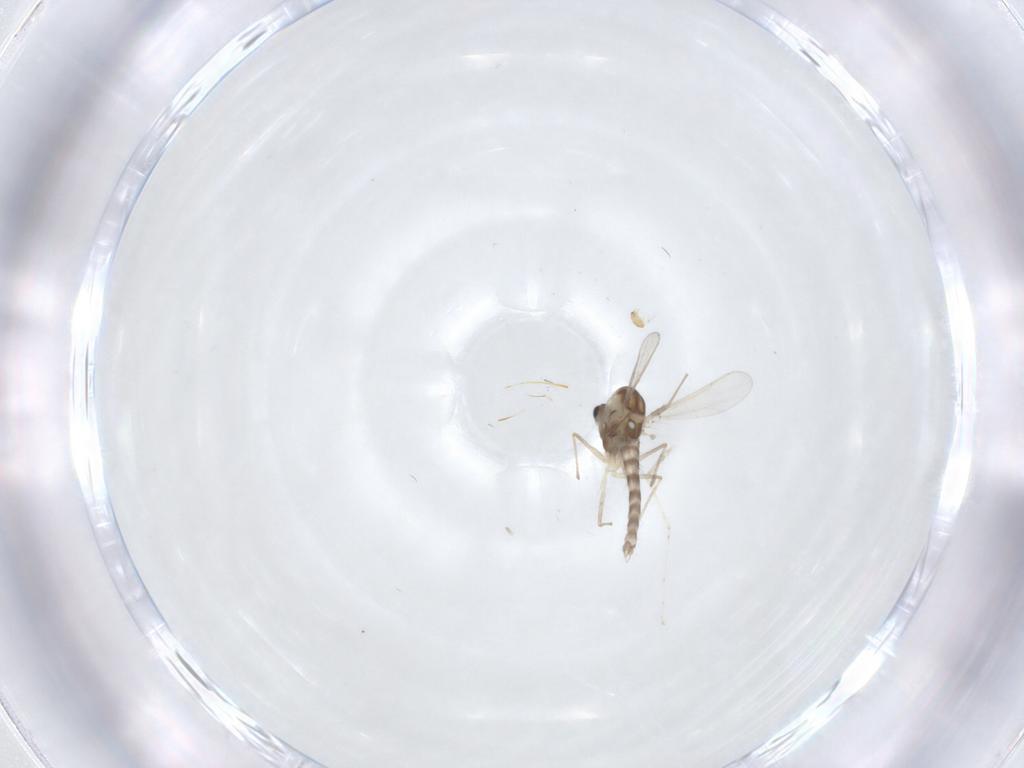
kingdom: Animalia
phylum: Arthropoda
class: Insecta
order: Diptera
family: Chironomidae
